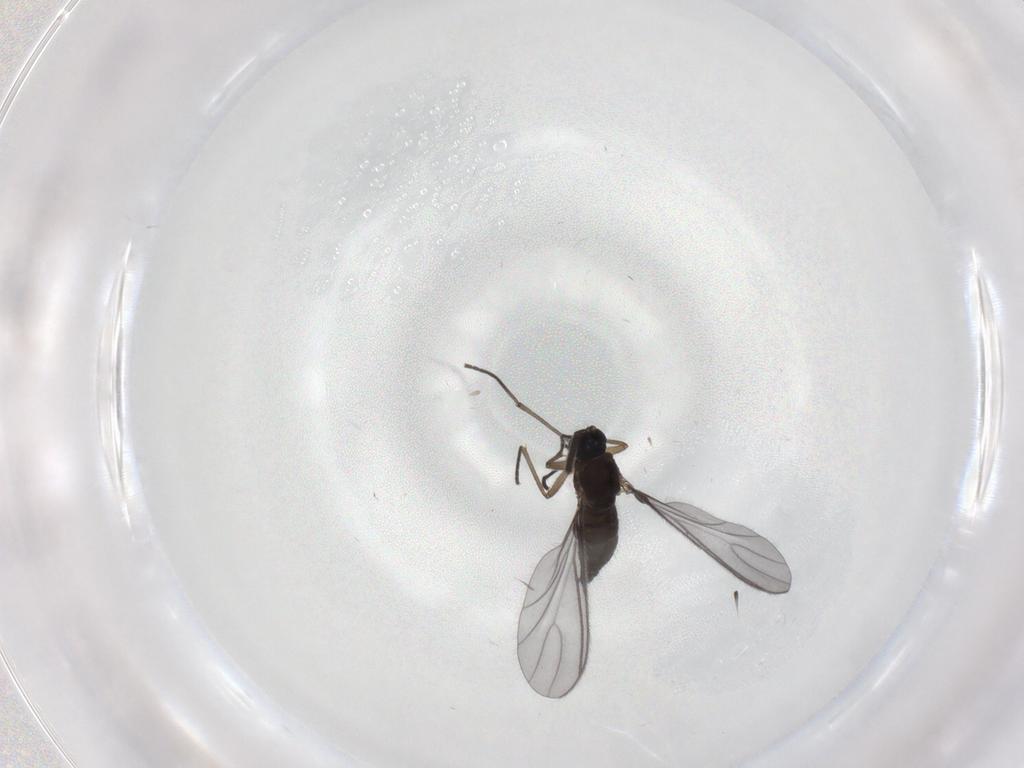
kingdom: Animalia
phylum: Arthropoda
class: Insecta
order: Diptera
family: Sciaridae
